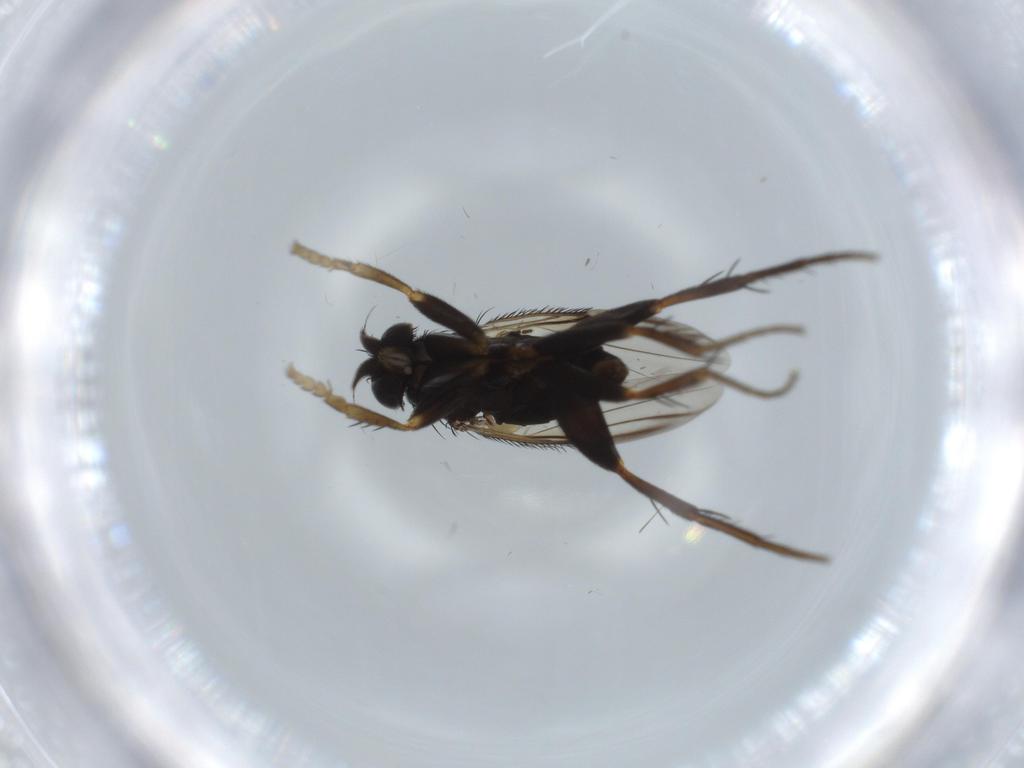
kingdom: Animalia
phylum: Arthropoda
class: Insecta
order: Diptera
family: Phoridae
